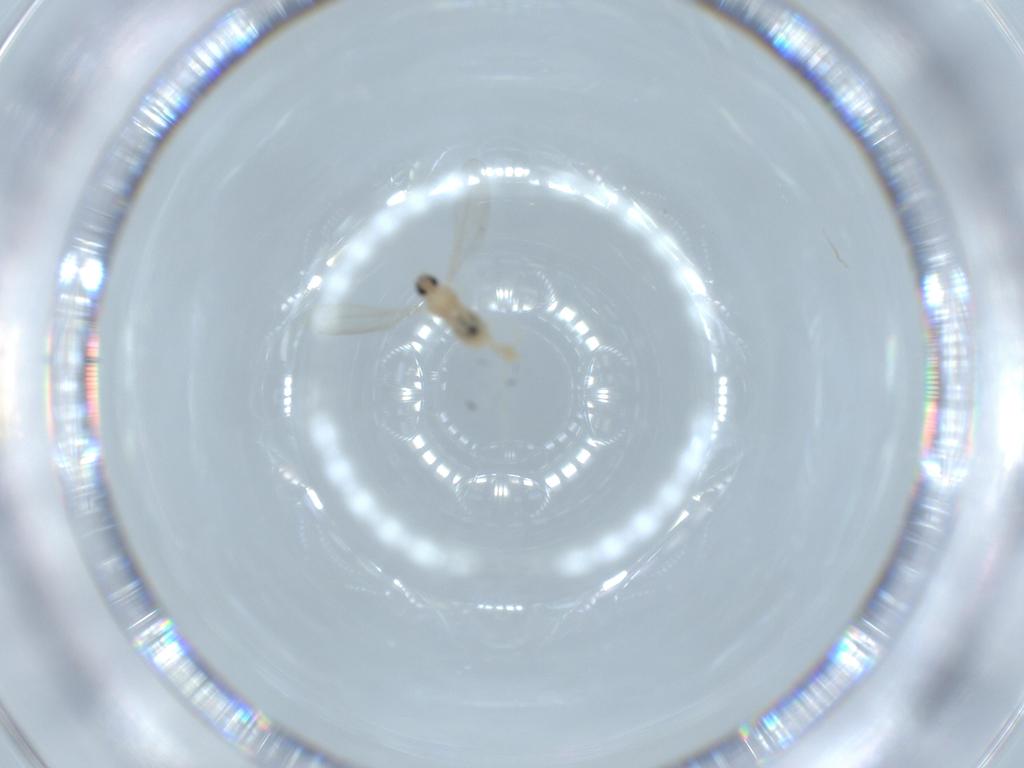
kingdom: Animalia
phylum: Arthropoda
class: Insecta
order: Diptera
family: Cecidomyiidae
